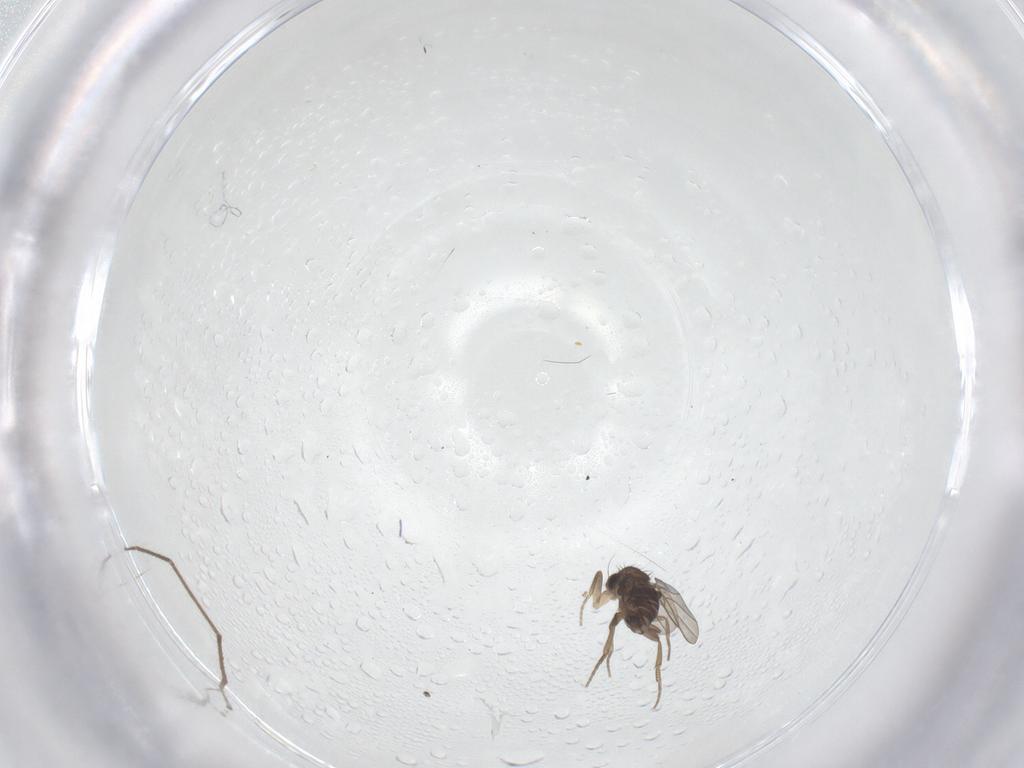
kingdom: Animalia
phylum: Arthropoda
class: Insecta
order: Diptera
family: Phoridae
